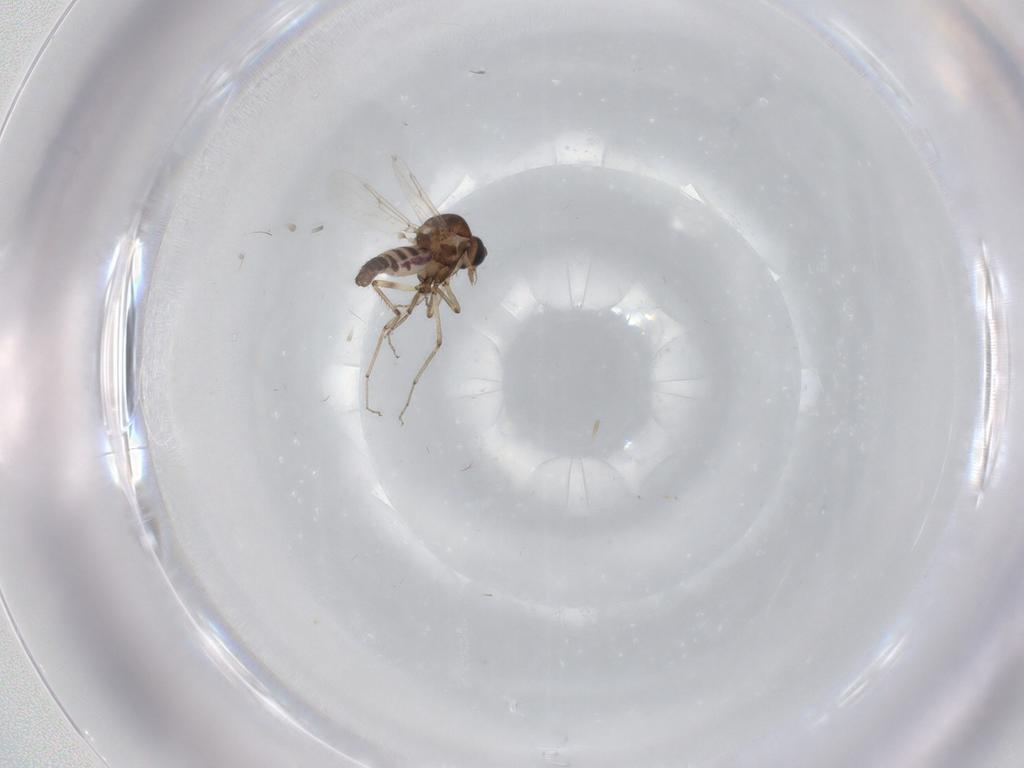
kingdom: Animalia
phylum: Arthropoda
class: Insecta
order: Diptera
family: Ceratopogonidae
